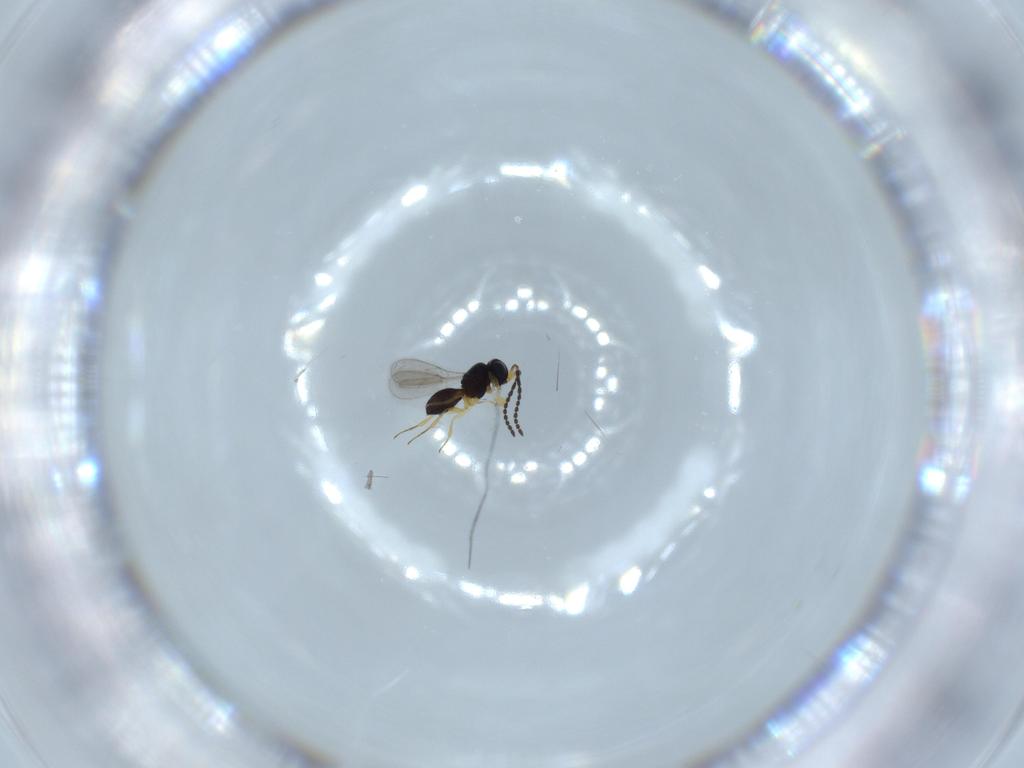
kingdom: Animalia
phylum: Arthropoda
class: Insecta
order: Hymenoptera
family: Scelionidae
